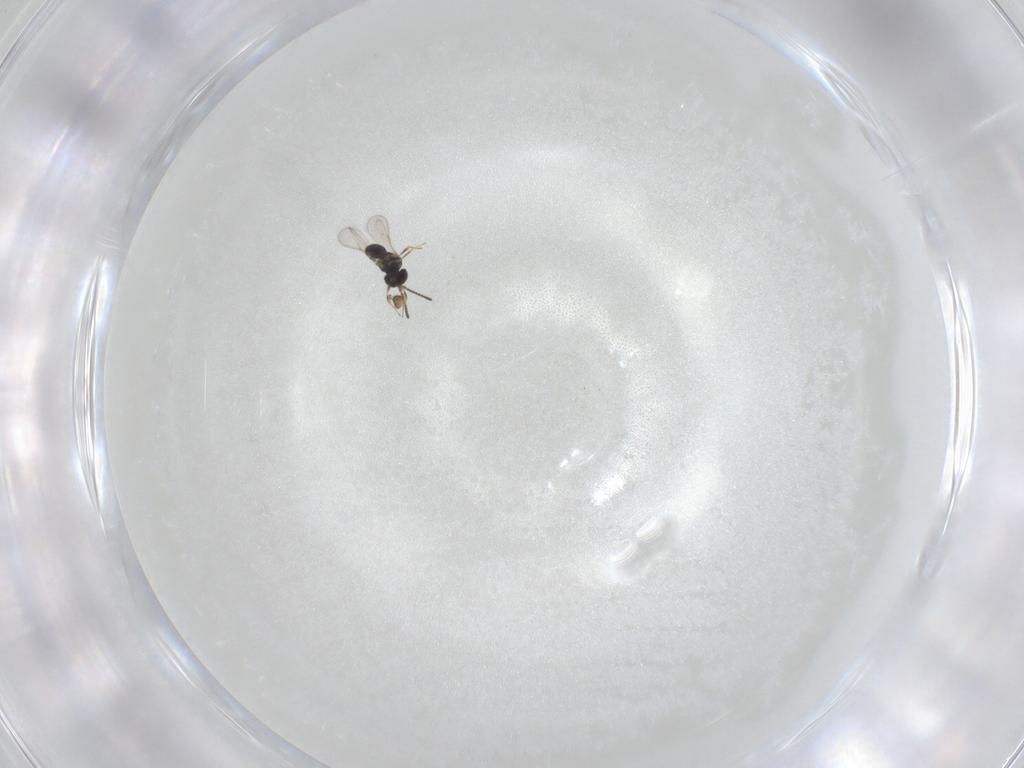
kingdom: Animalia
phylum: Arthropoda
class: Insecta
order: Hymenoptera
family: Scelionidae
